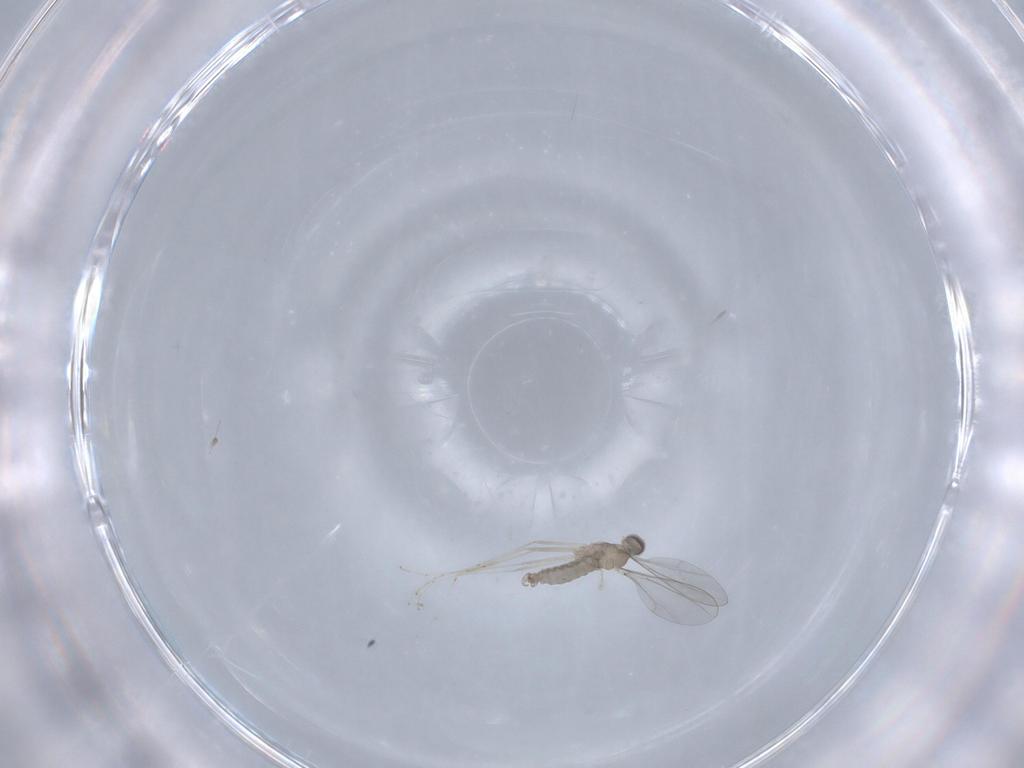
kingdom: Animalia
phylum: Arthropoda
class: Insecta
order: Diptera
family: Cecidomyiidae
